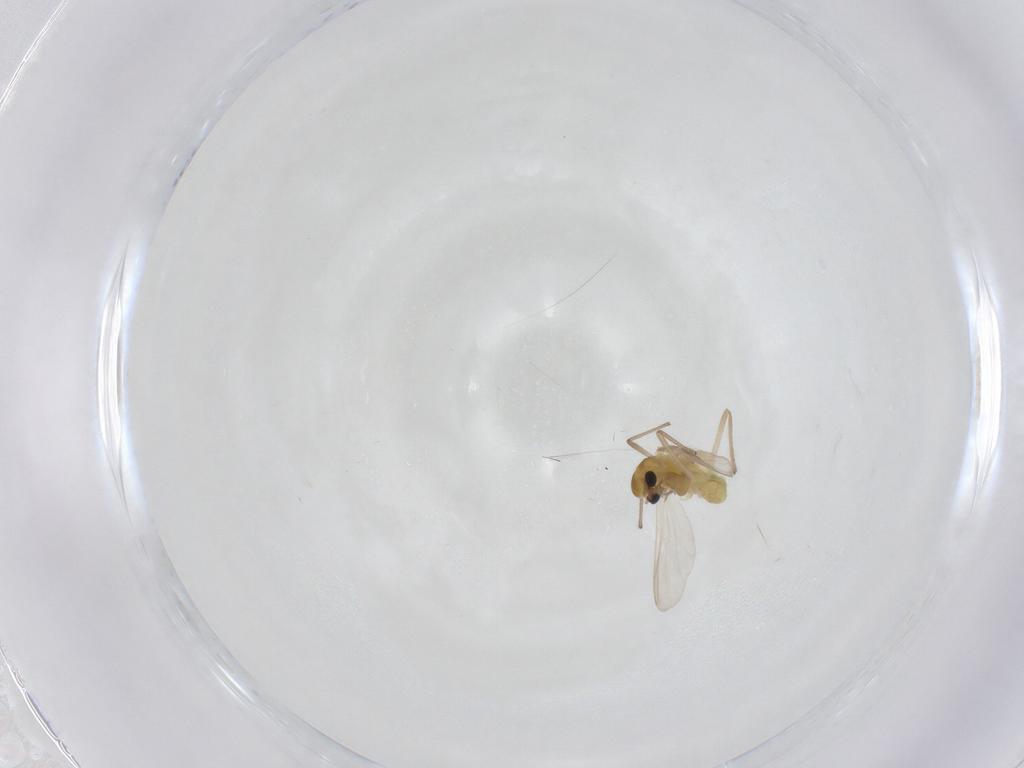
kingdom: Animalia
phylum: Arthropoda
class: Insecta
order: Diptera
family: Chironomidae
